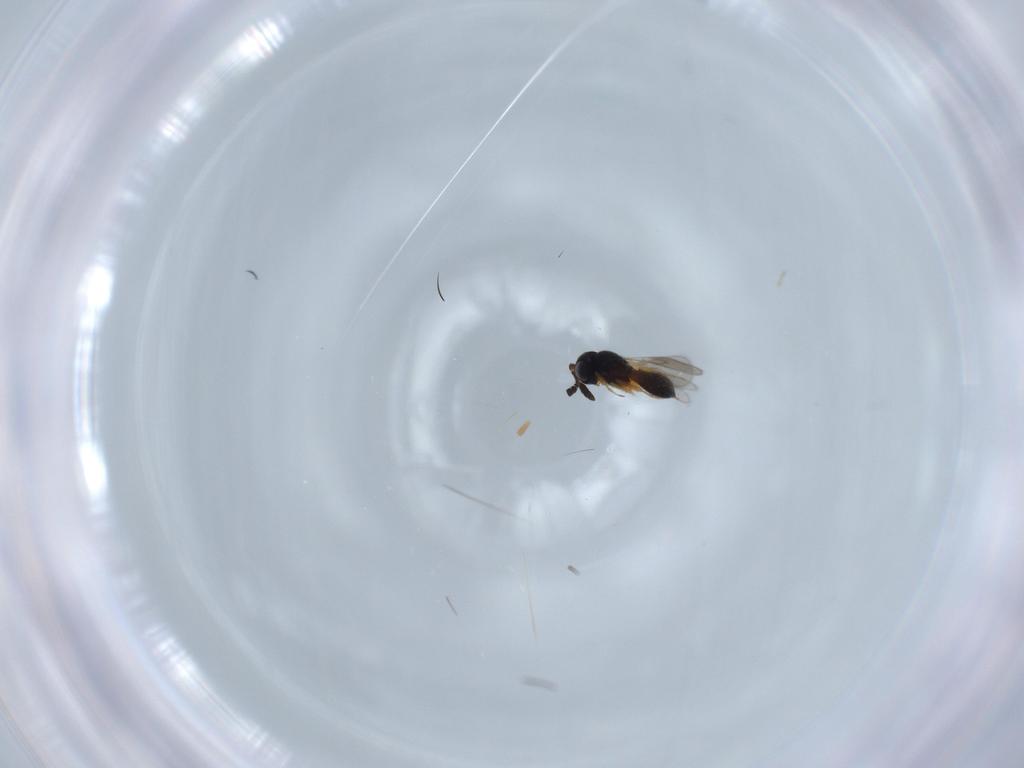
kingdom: Animalia
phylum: Arthropoda
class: Insecta
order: Hymenoptera
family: Scelionidae
